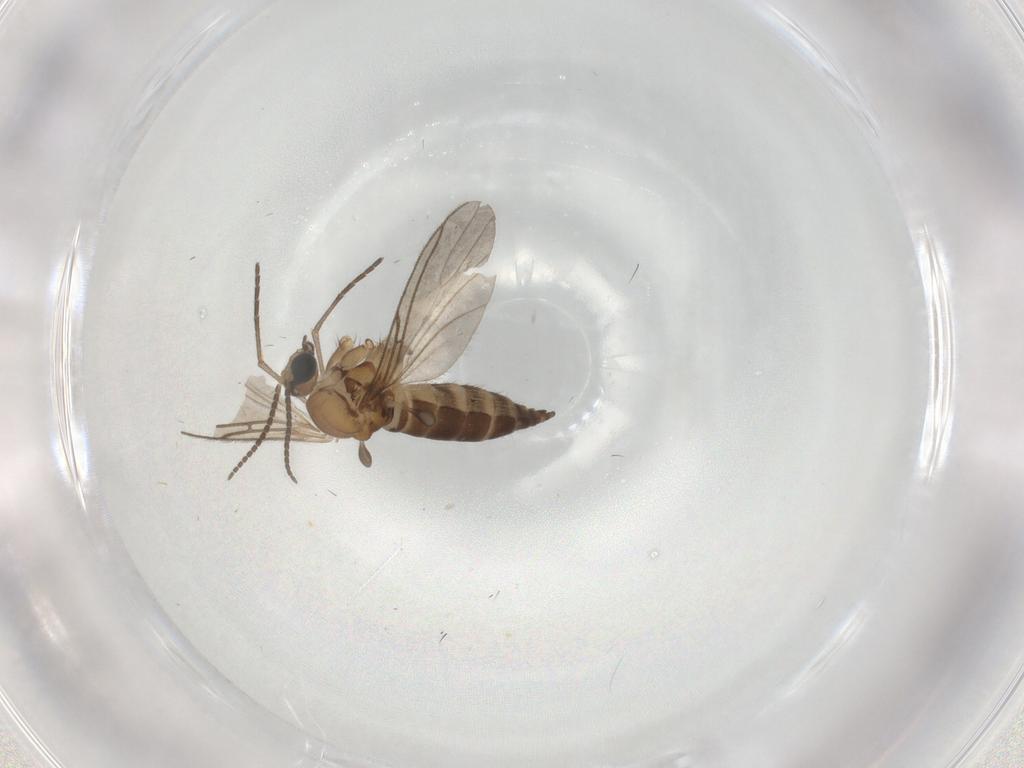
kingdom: Animalia
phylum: Arthropoda
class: Insecta
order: Diptera
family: Sciaridae
